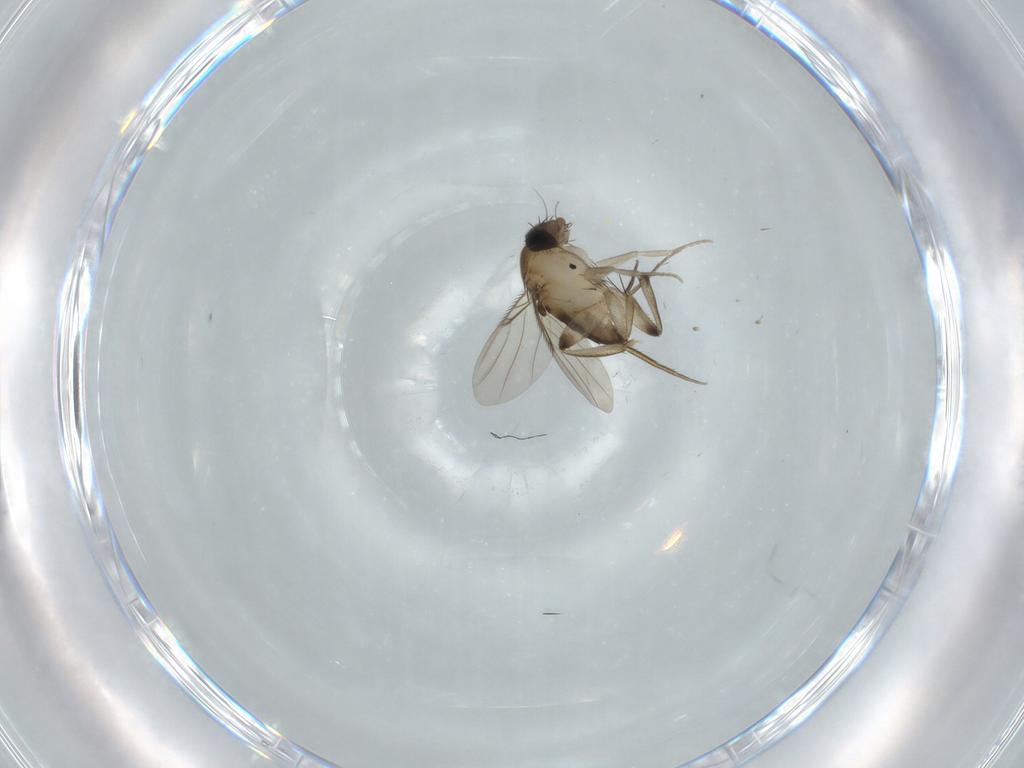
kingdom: Animalia
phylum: Arthropoda
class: Insecta
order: Diptera
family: Phoridae
